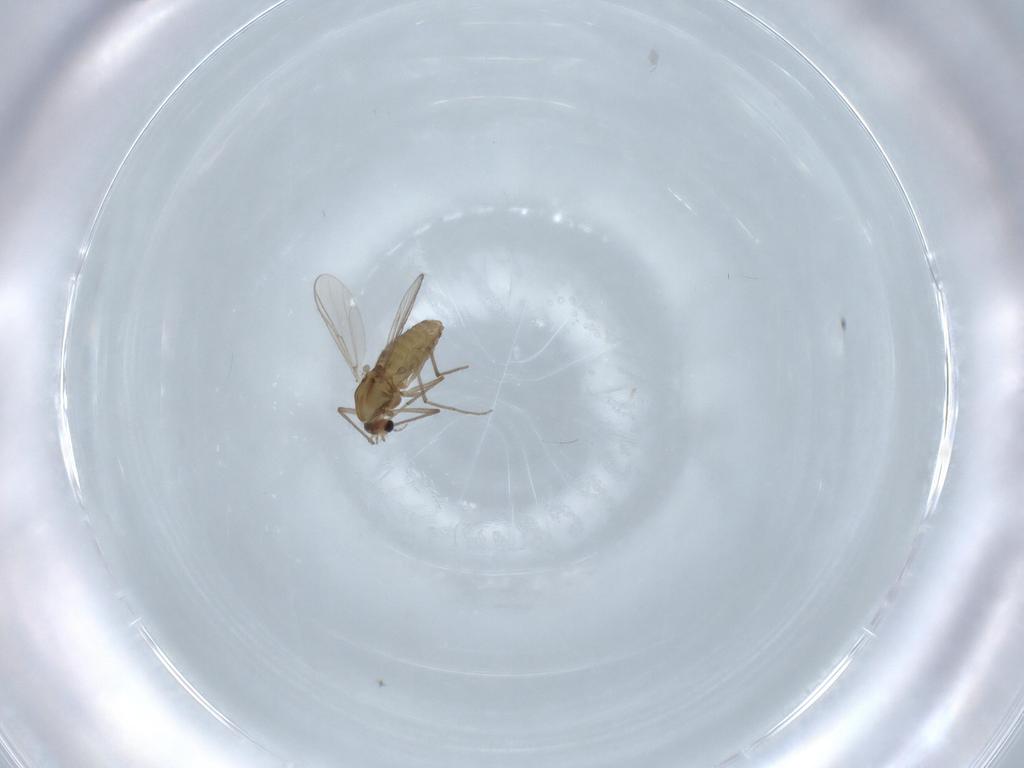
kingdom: Animalia
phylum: Arthropoda
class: Insecta
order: Diptera
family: Chironomidae
